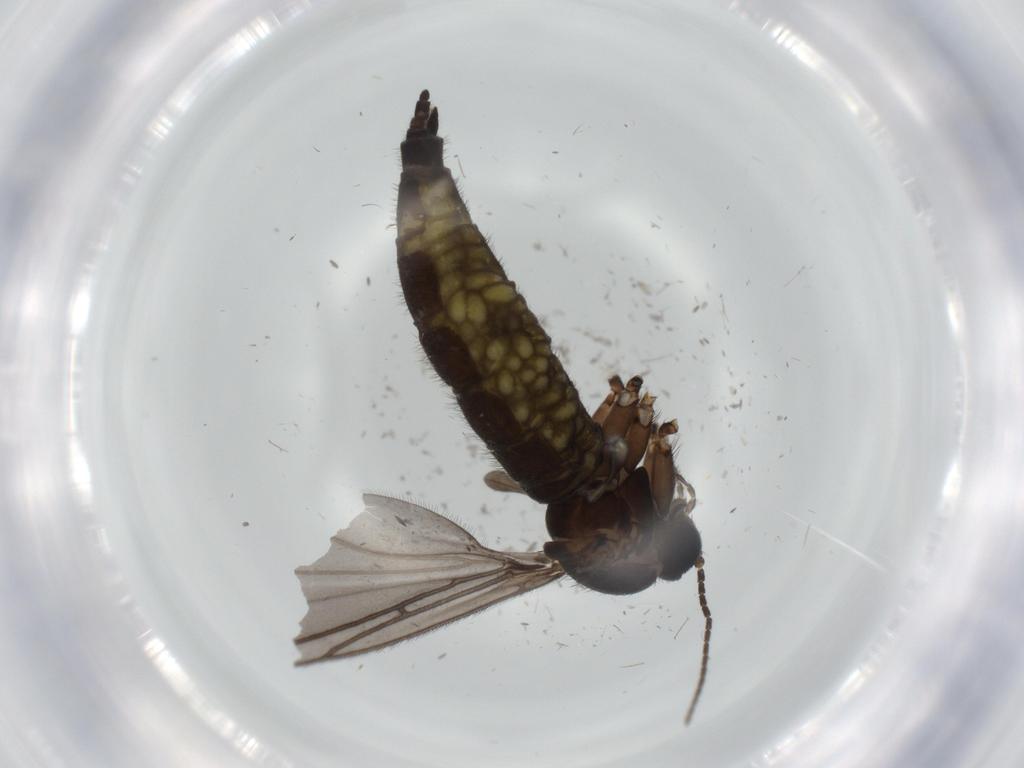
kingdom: Animalia
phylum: Arthropoda
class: Insecta
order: Diptera
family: Sciaridae
